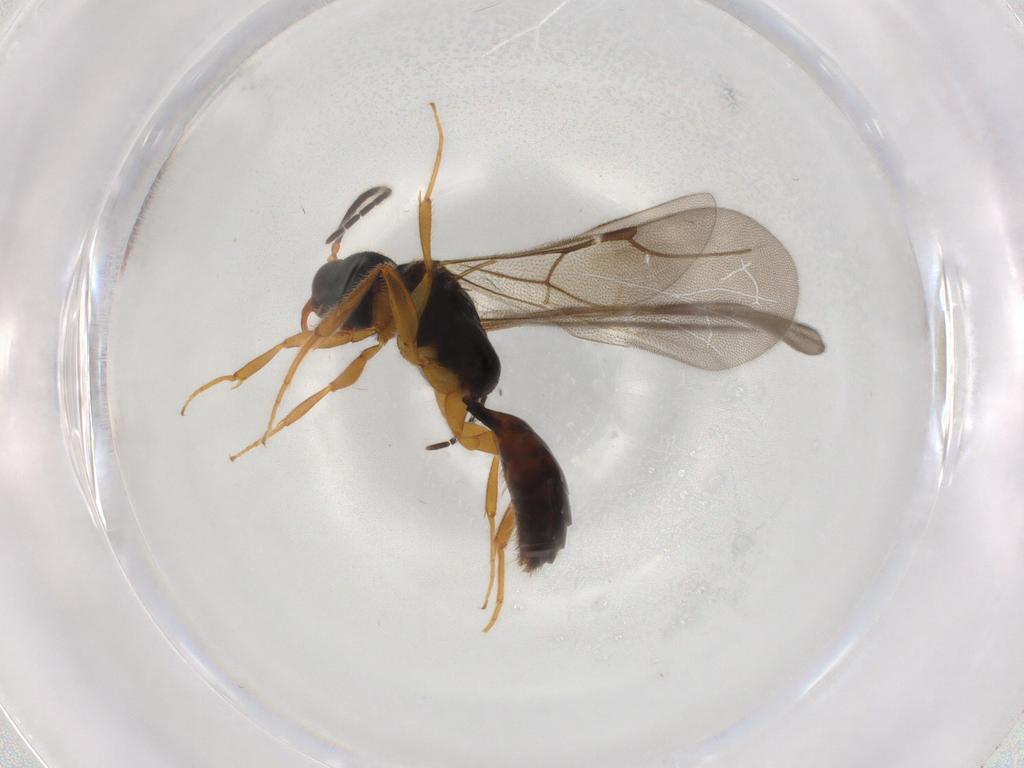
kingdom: Animalia
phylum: Arthropoda
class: Insecta
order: Hymenoptera
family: Bethylidae
